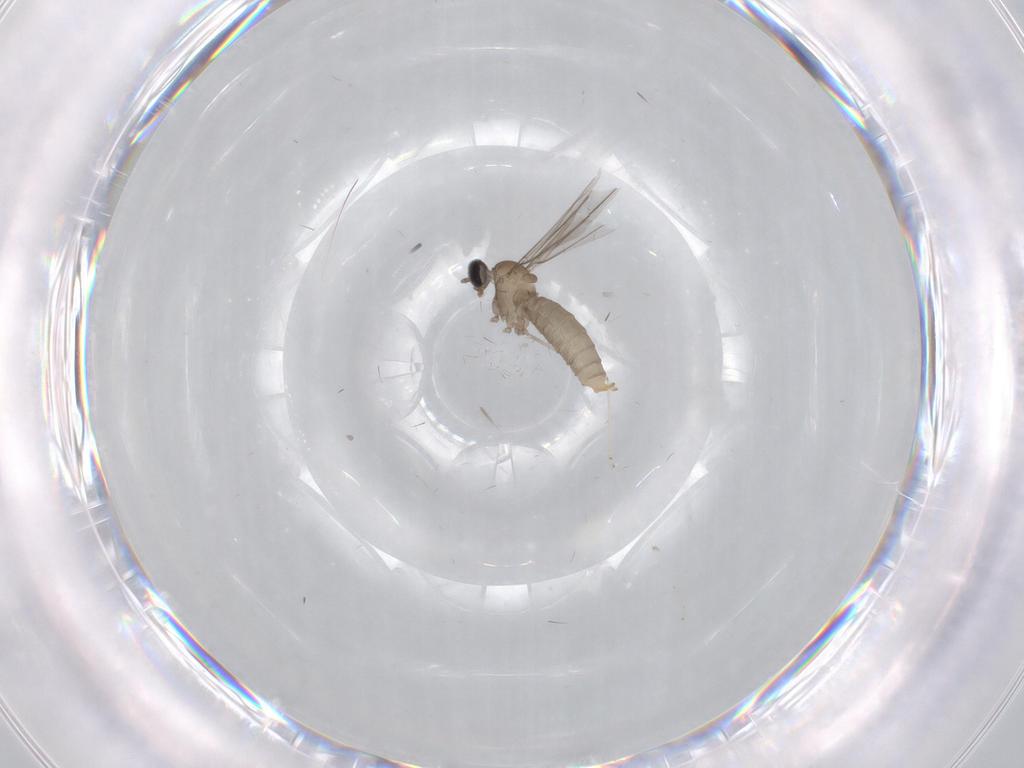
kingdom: Animalia
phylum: Arthropoda
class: Insecta
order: Diptera
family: Cecidomyiidae
